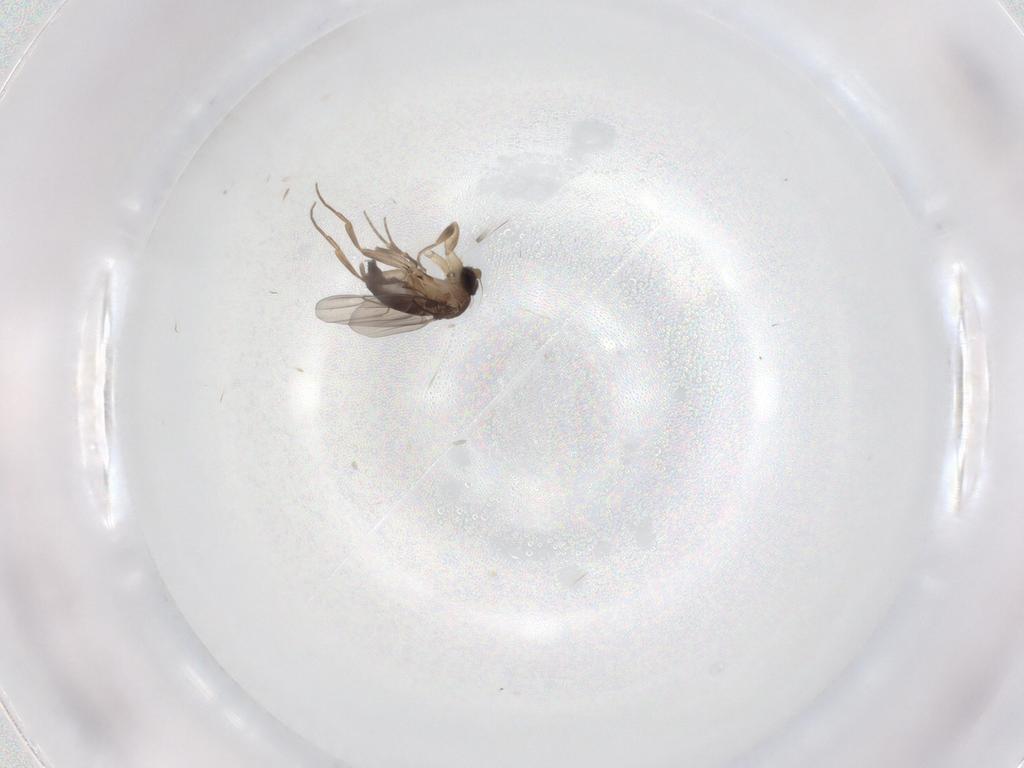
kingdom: Animalia
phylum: Arthropoda
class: Insecta
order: Diptera
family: Phoridae
